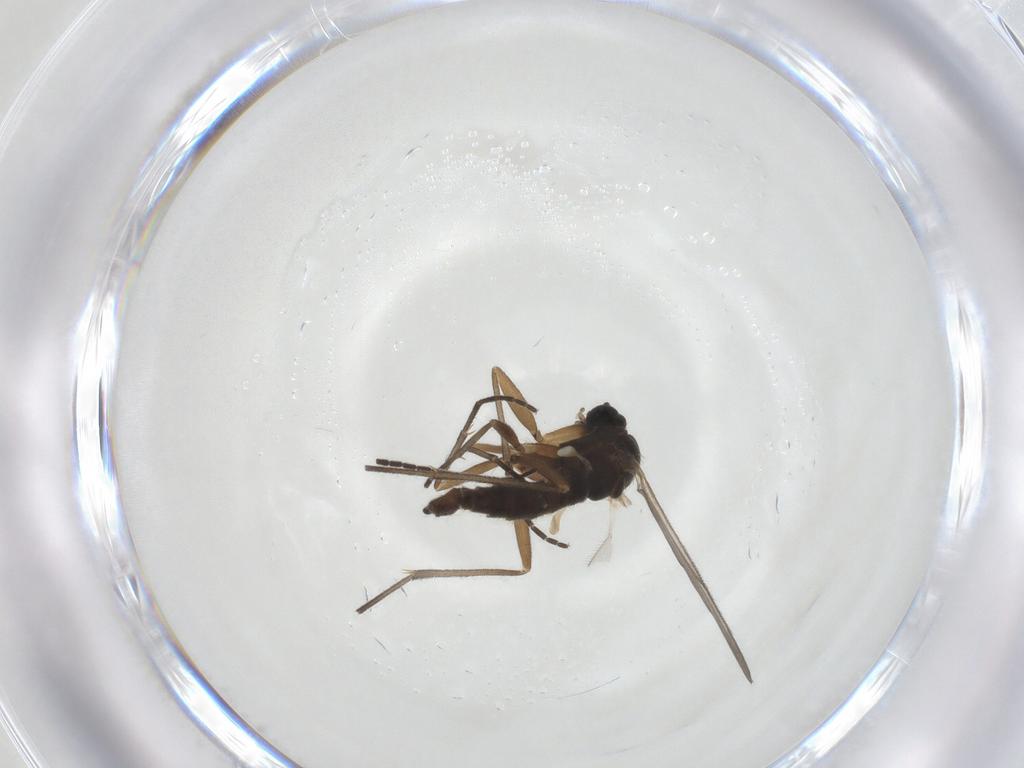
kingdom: Animalia
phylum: Arthropoda
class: Insecta
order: Diptera
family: Sciaridae
